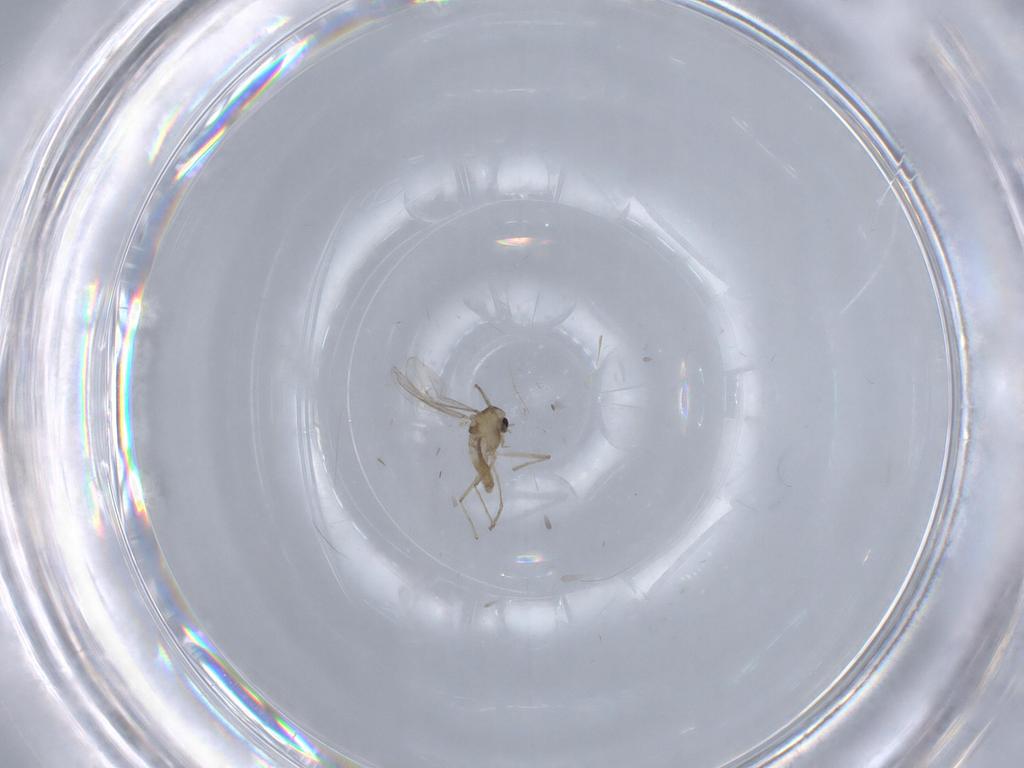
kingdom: Animalia
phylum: Arthropoda
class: Insecta
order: Diptera
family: Chironomidae
